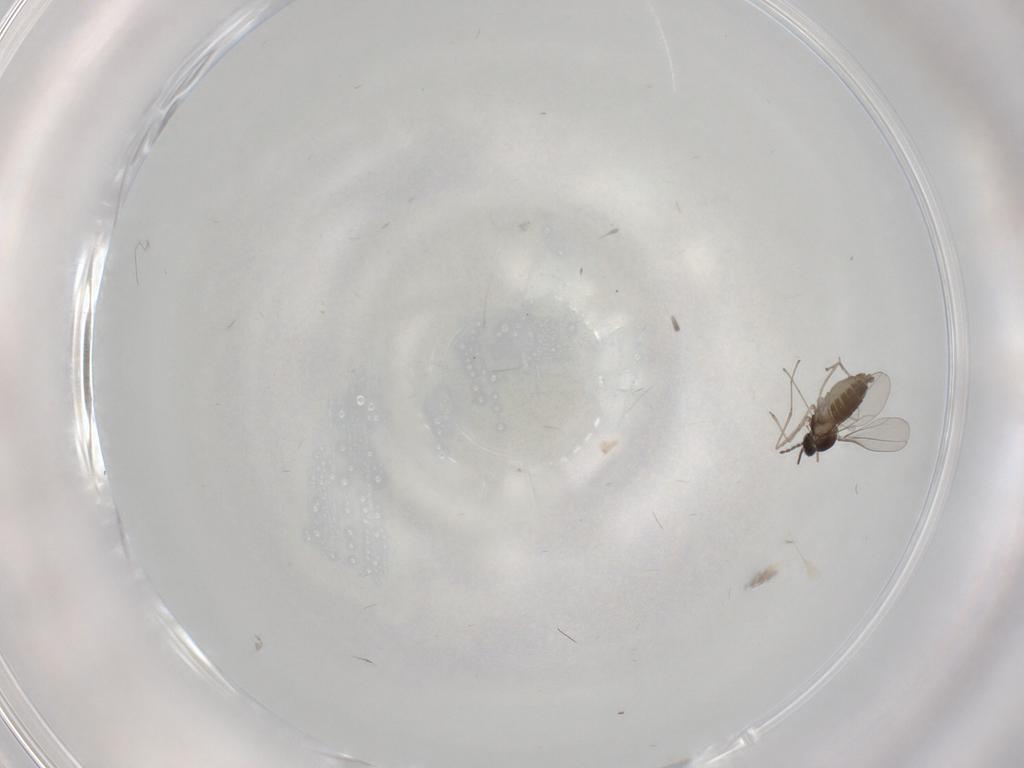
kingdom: Animalia
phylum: Arthropoda
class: Insecta
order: Diptera
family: Cecidomyiidae
